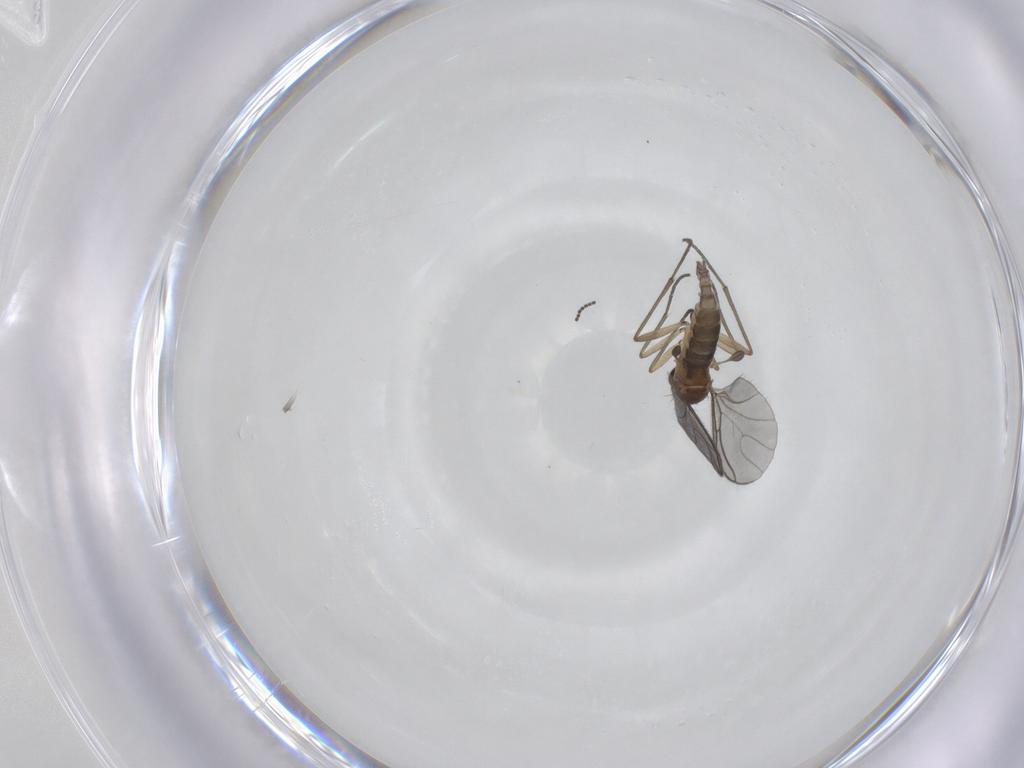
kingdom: Animalia
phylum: Arthropoda
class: Insecta
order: Diptera
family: Sciaridae
